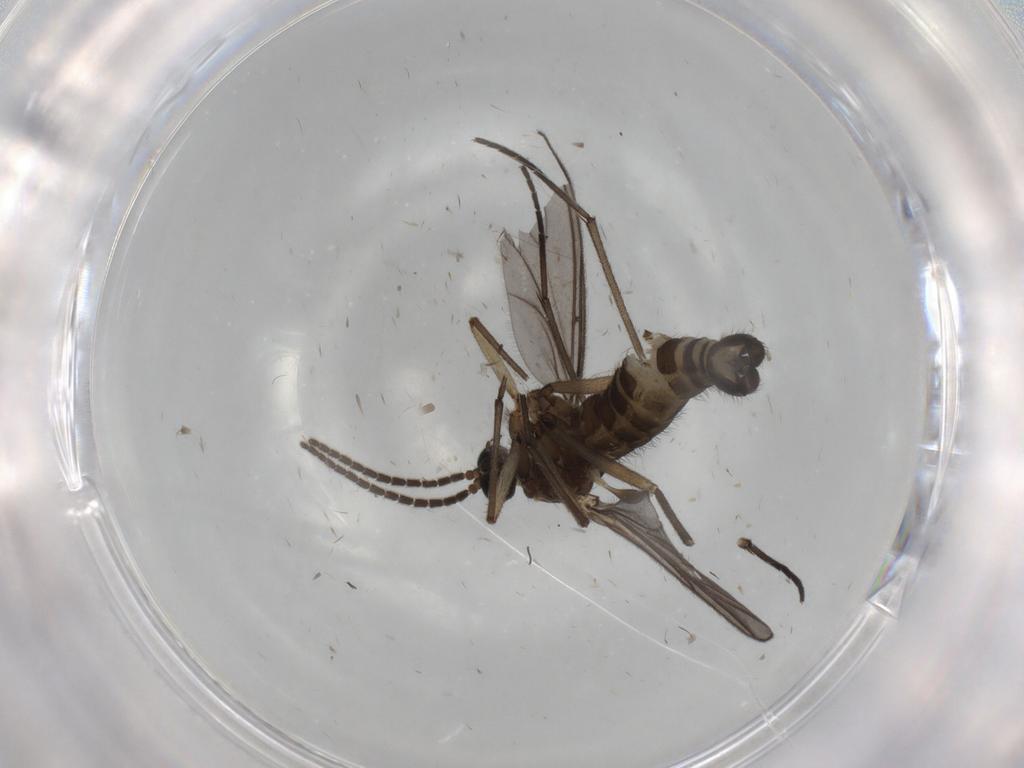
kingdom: Animalia
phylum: Arthropoda
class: Insecta
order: Diptera
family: Sciaridae
